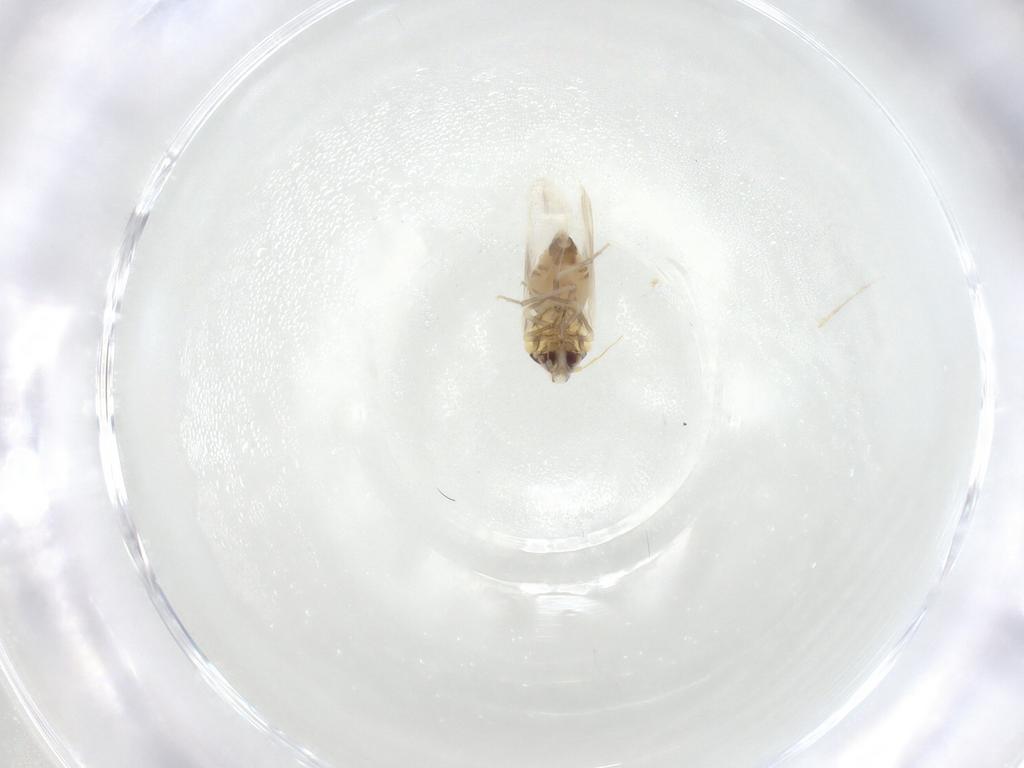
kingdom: Animalia
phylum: Arthropoda
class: Insecta
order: Hemiptera
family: Aleyrodidae
